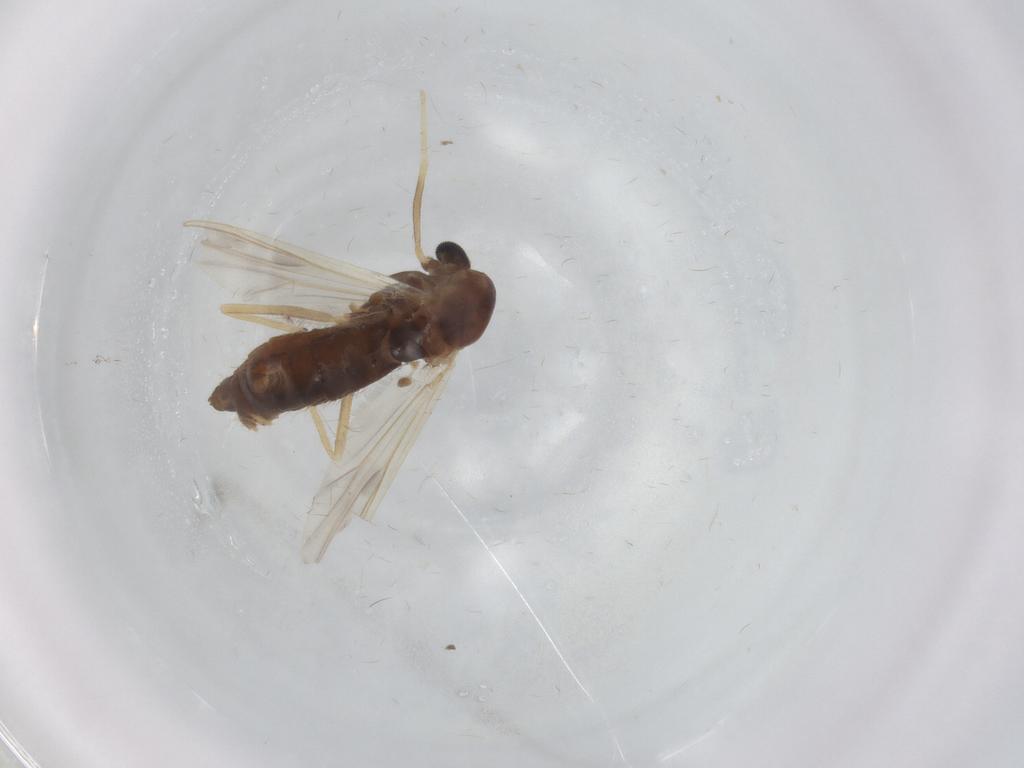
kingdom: Animalia
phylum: Arthropoda
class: Insecta
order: Diptera
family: Chironomidae
